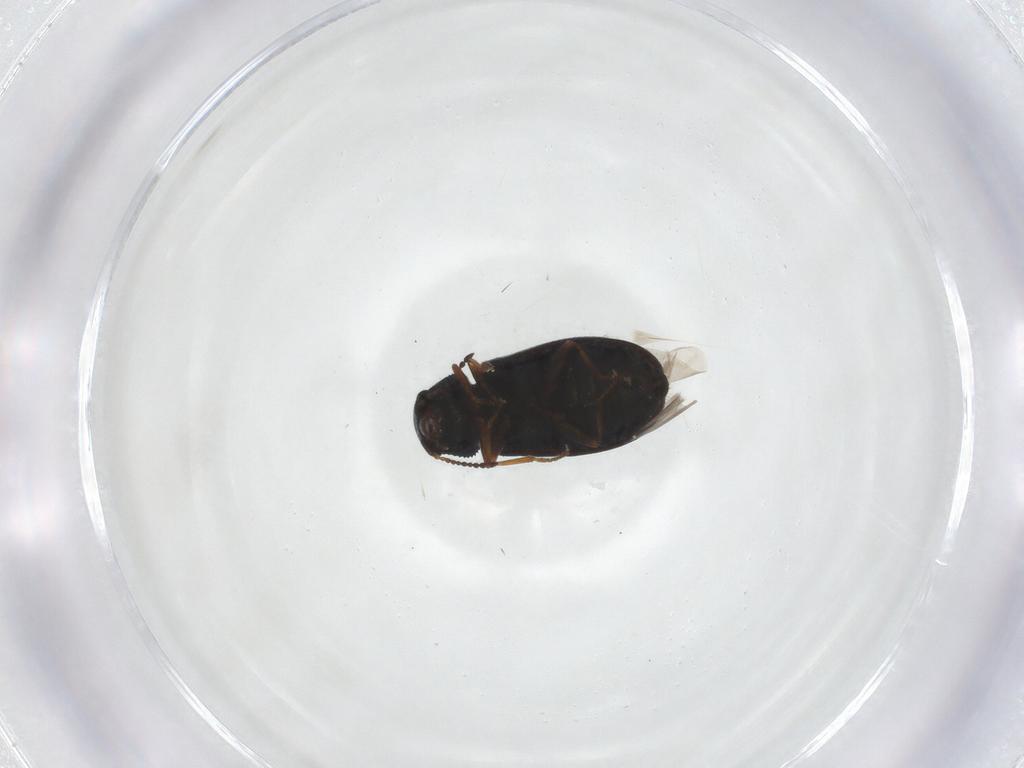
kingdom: Animalia
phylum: Arthropoda
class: Insecta
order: Coleoptera
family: Melyridae
